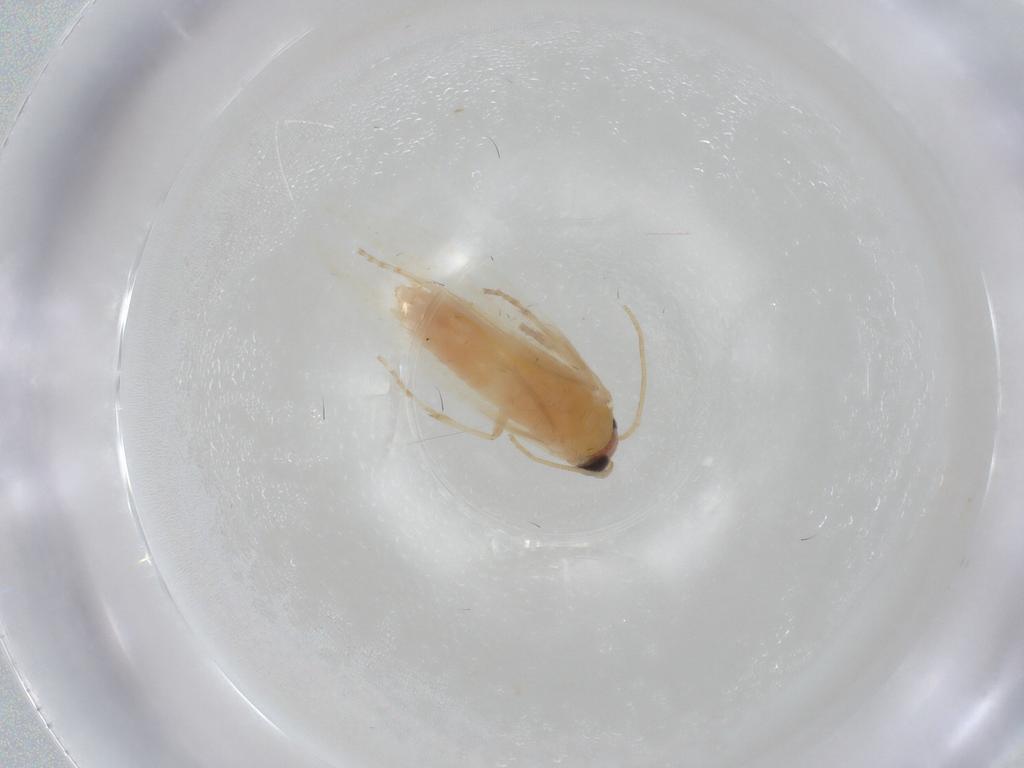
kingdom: Animalia
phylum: Arthropoda
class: Insecta
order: Lepidoptera
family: Nepticulidae
